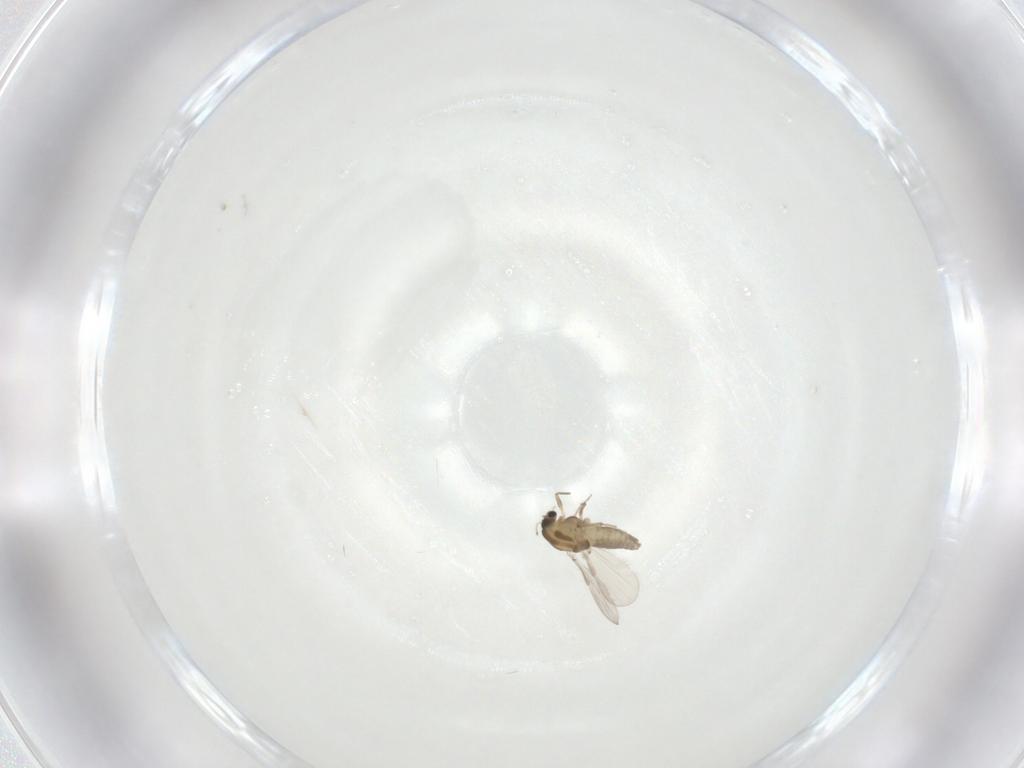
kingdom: Animalia
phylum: Arthropoda
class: Insecta
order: Diptera
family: Chironomidae
